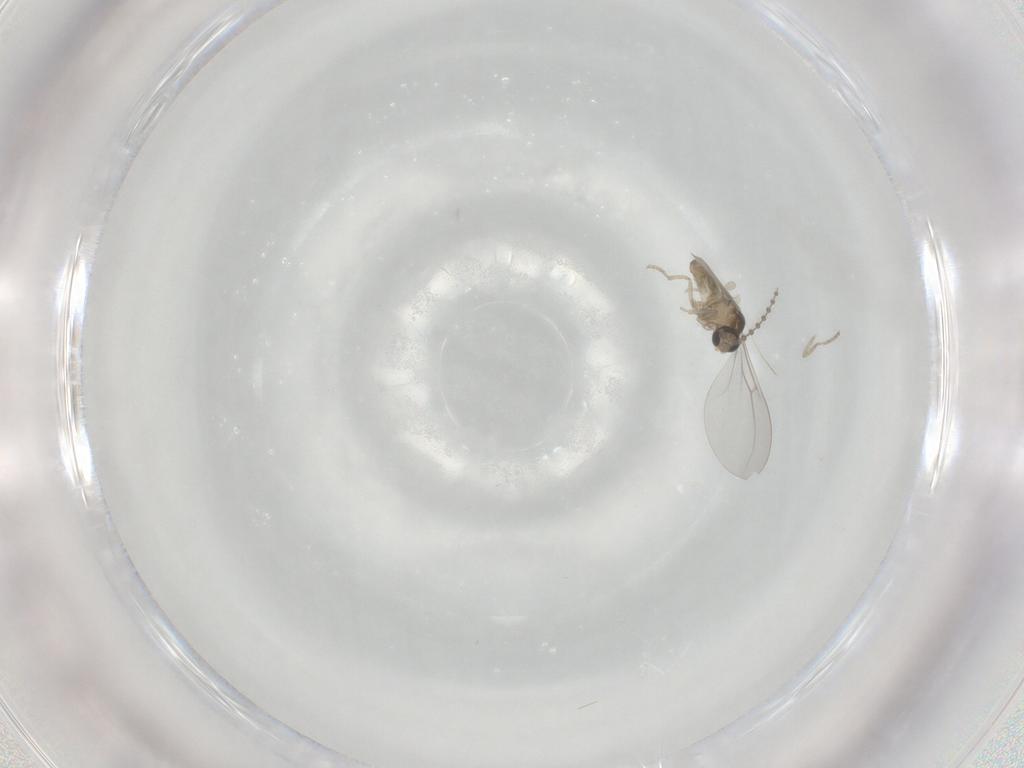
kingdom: Animalia
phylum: Arthropoda
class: Insecta
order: Diptera
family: Cecidomyiidae
